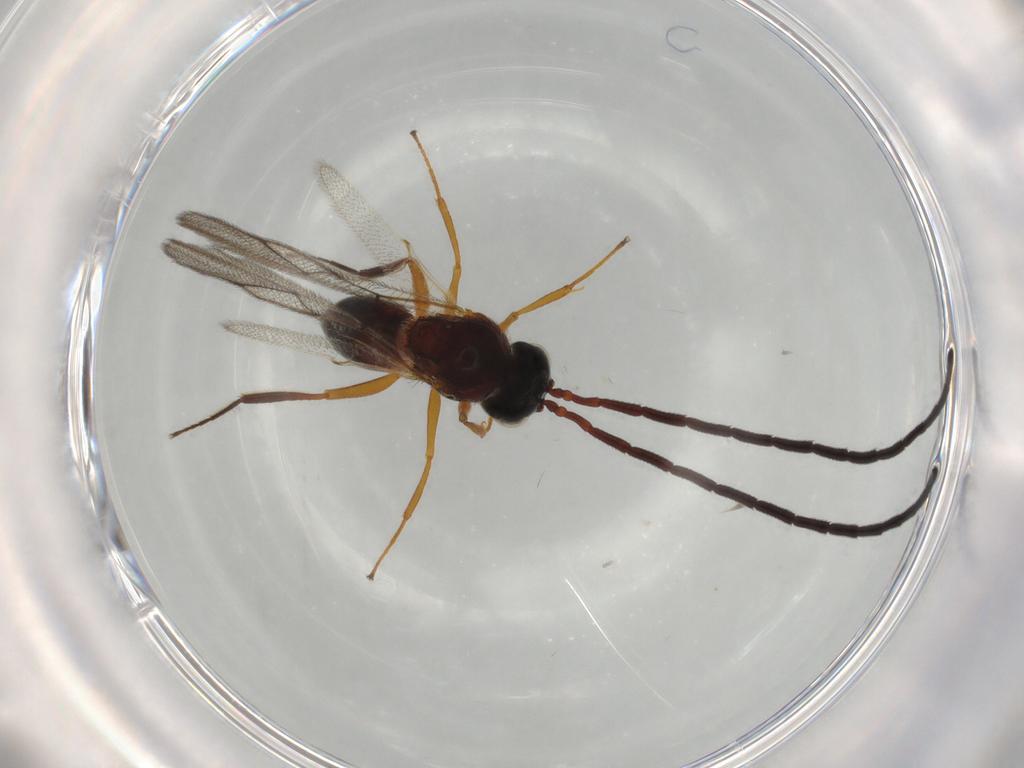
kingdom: Animalia
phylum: Arthropoda
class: Insecta
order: Hymenoptera
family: Figitidae
